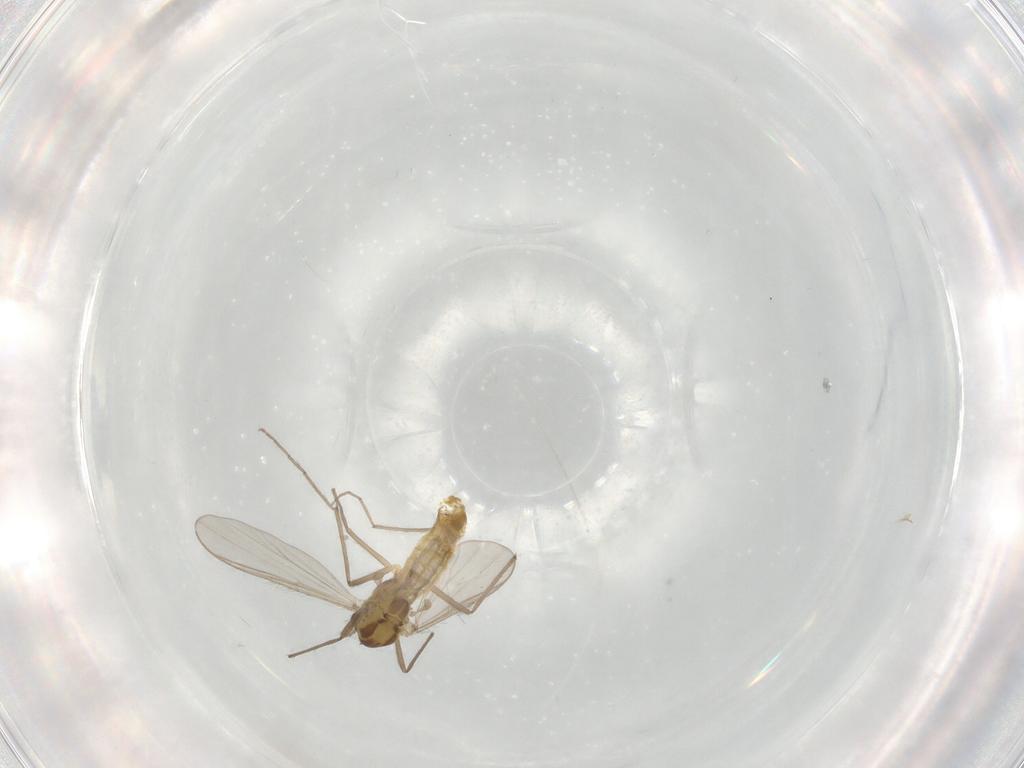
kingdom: Animalia
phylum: Arthropoda
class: Insecta
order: Diptera
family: Chironomidae
